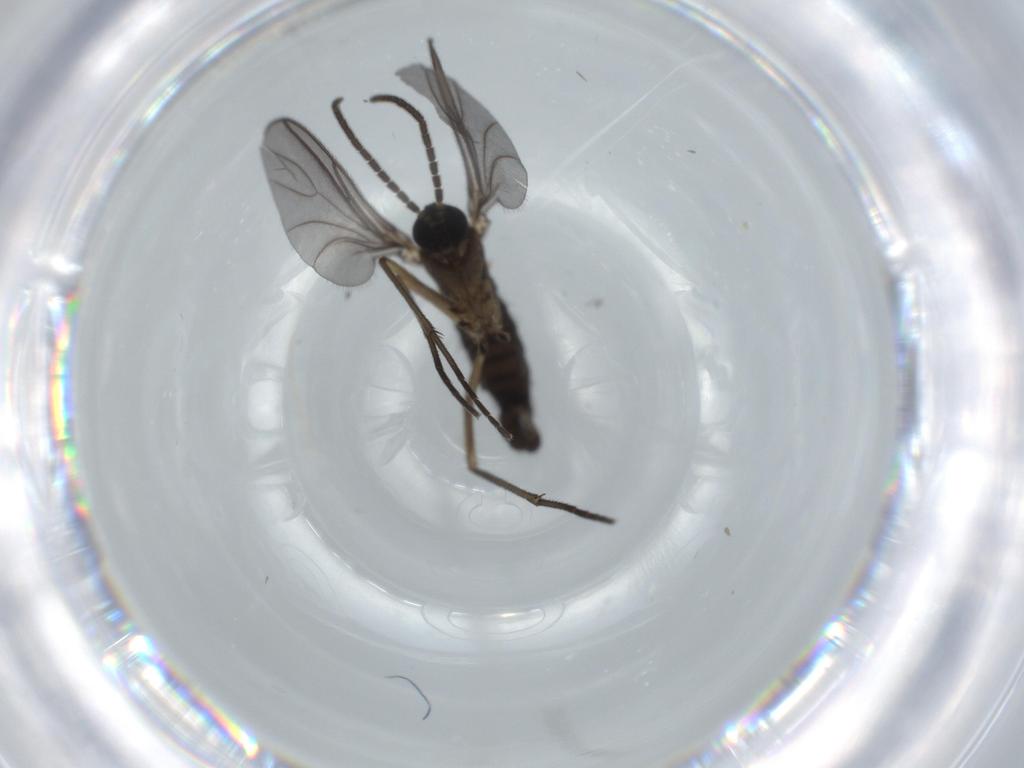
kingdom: Animalia
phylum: Arthropoda
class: Insecta
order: Diptera
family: Sciaridae
